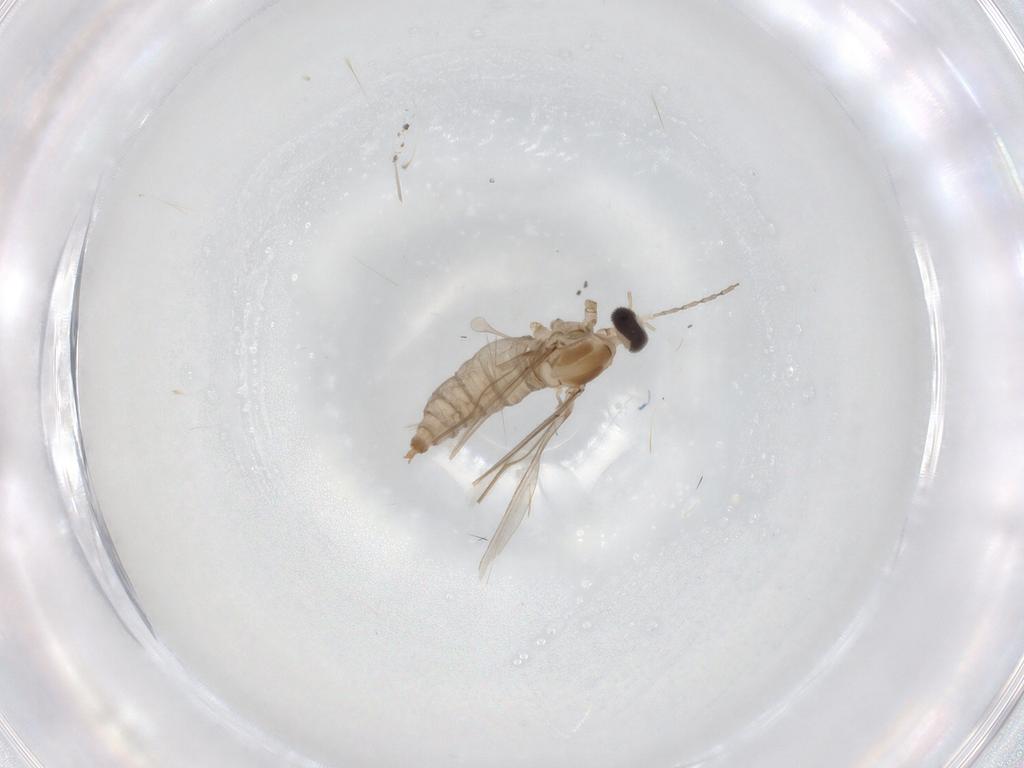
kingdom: Animalia
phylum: Arthropoda
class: Insecta
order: Diptera
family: Cecidomyiidae
